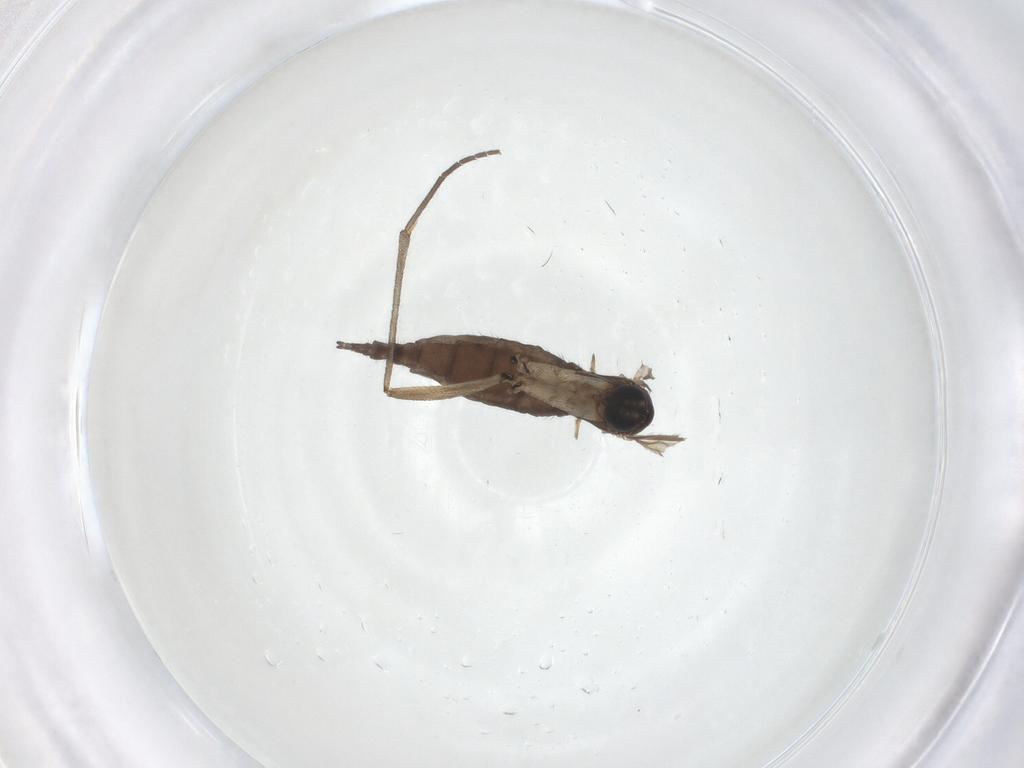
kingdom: Animalia
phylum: Arthropoda
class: Insecta
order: Diptera
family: Sciaridae
